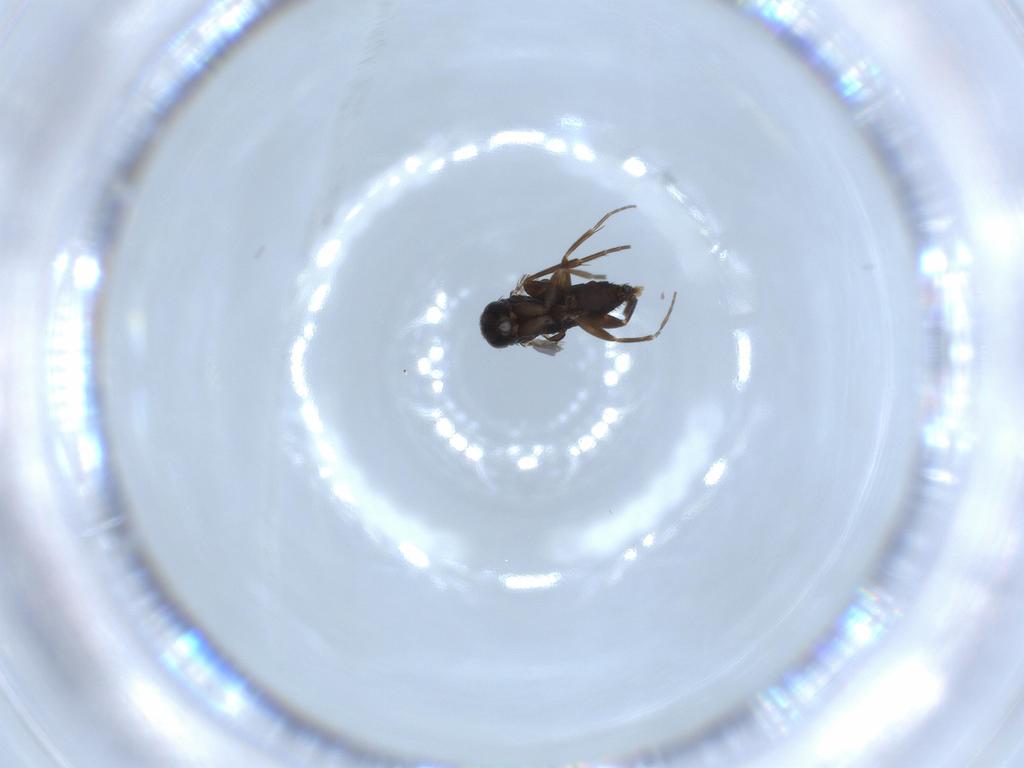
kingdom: Animalia
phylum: Arthropoda
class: Insecta
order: Diptera
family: Phoridae
